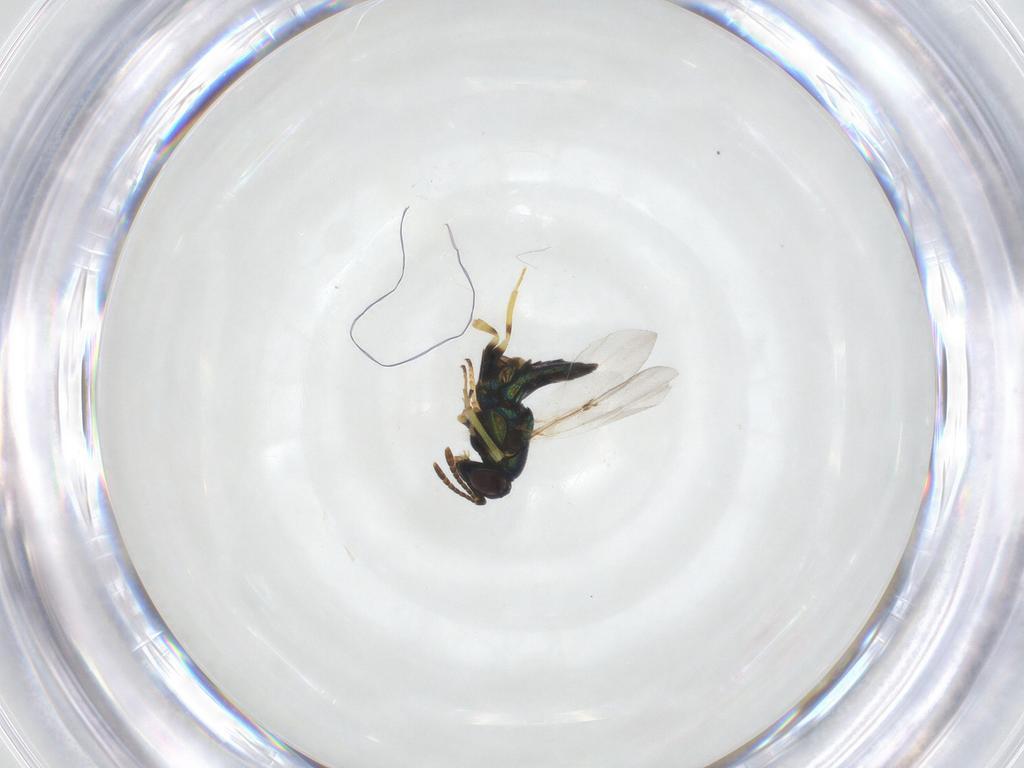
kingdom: Animalia
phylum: Arthropoda
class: Insecta
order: Hymenoptera
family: Encyrtidae
